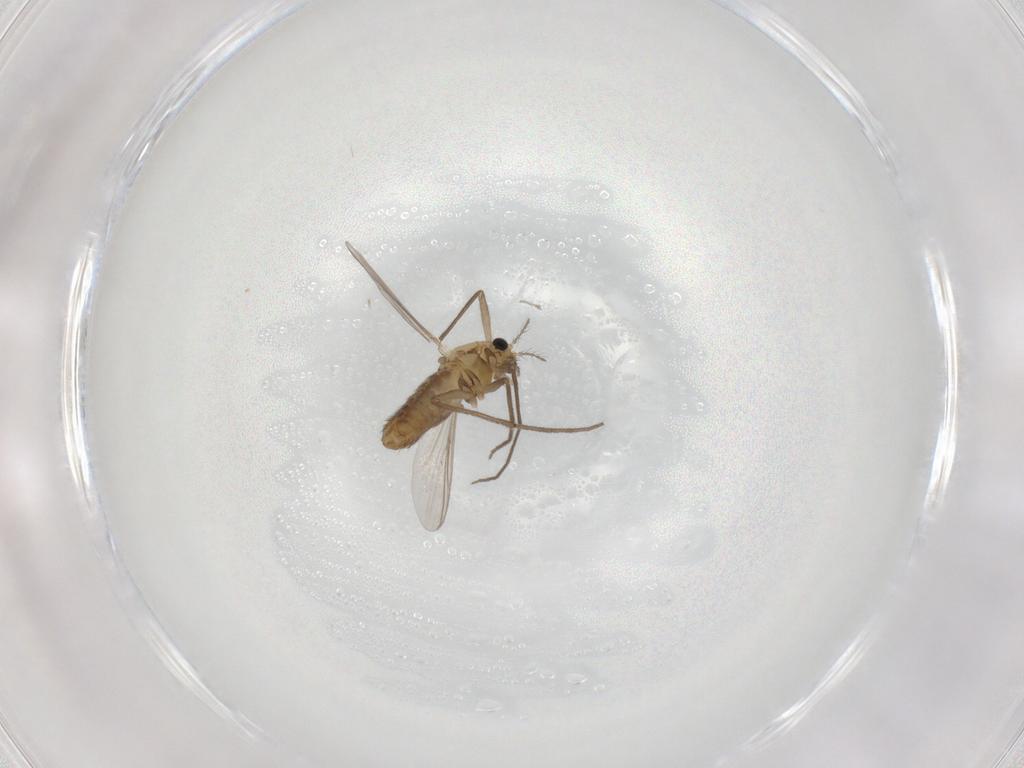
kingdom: Animalia
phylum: Arthropoda
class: Insecta
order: Diptera
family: Chironomidae
